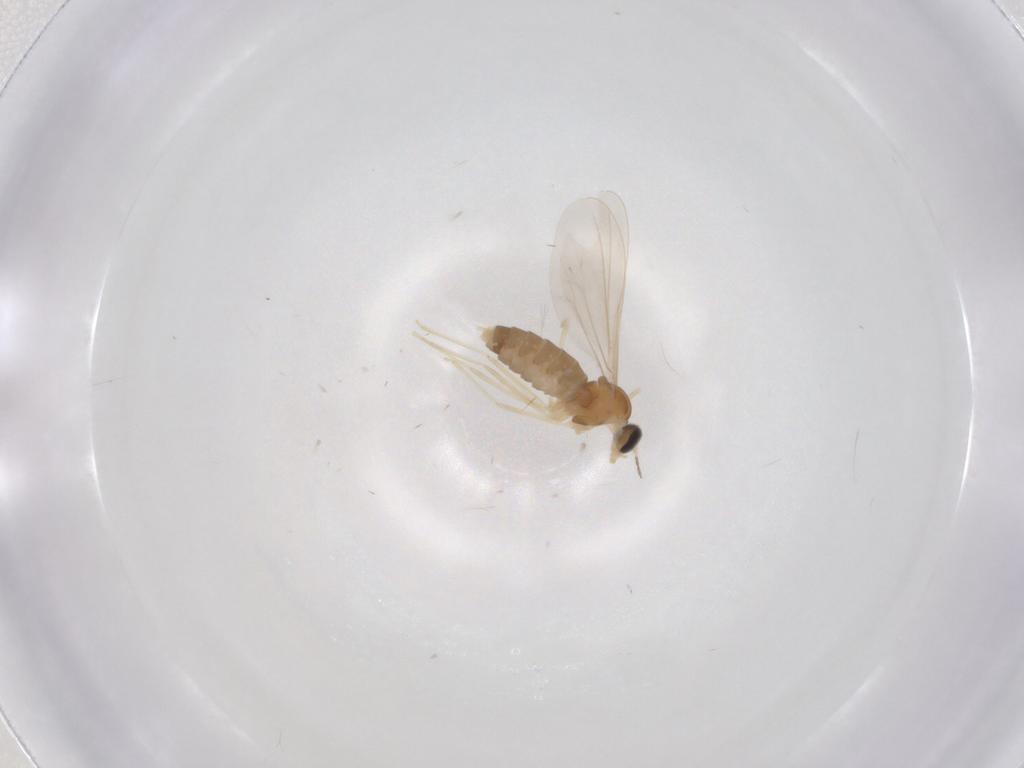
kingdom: Animalia
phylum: Arthropoda
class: Insecta
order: Diptera
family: Cecidomyiidae
